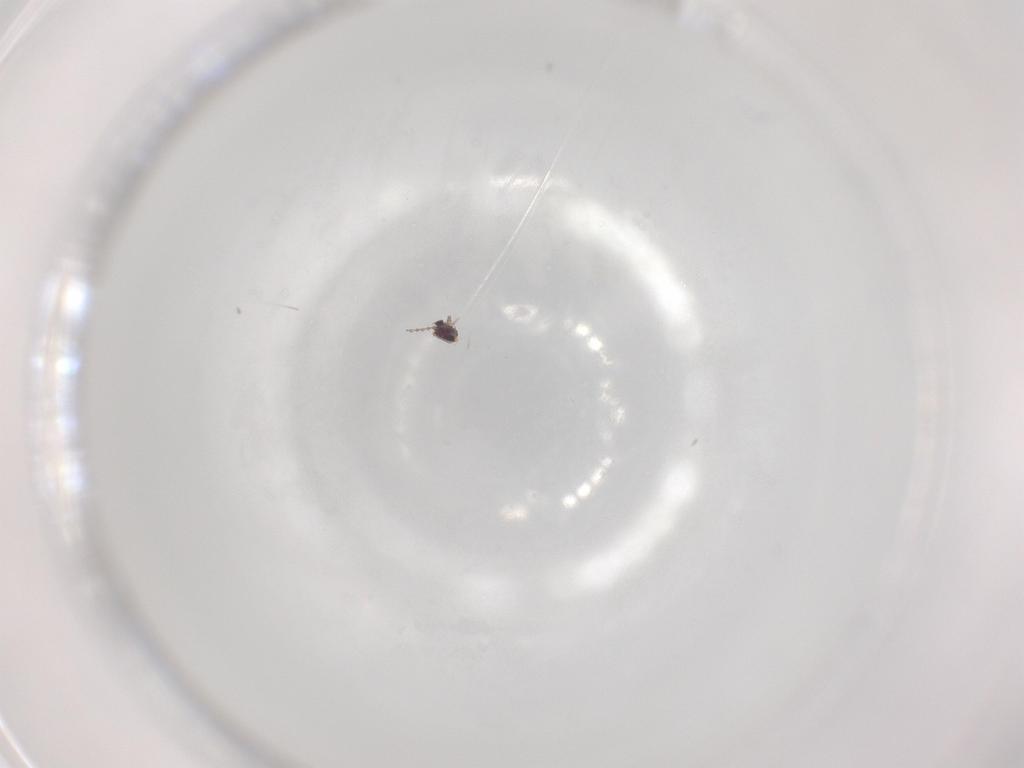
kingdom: Animalia
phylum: Arthropoda
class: Insecta
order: Diptera
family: Cecidomyiidae
